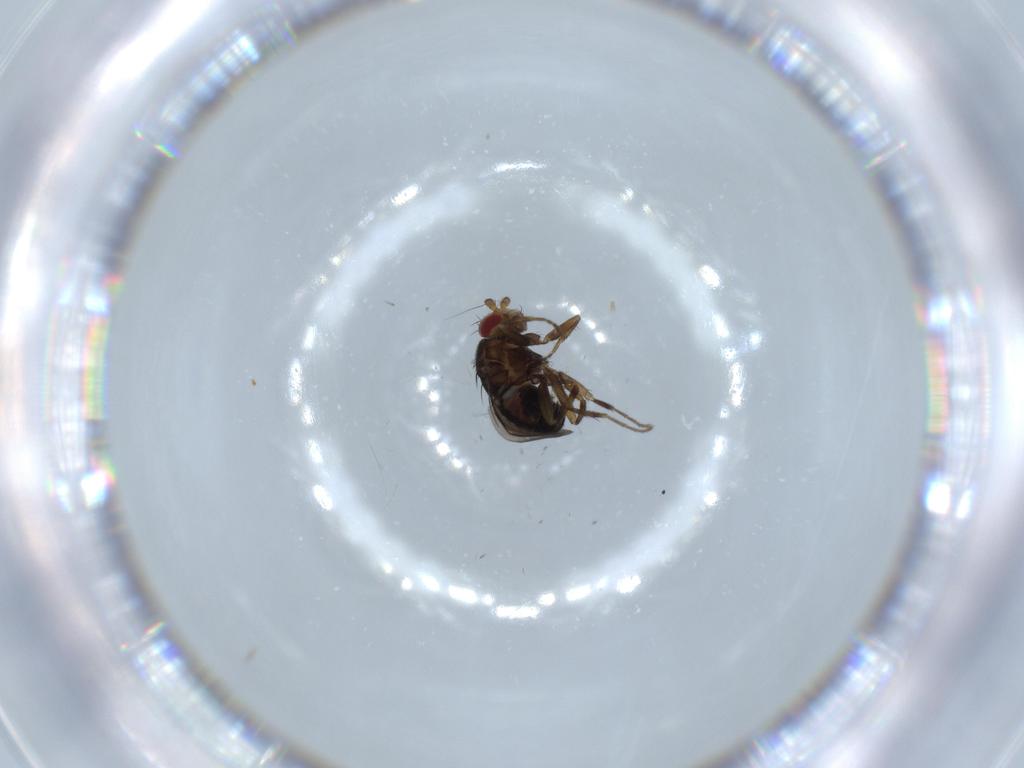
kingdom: Animalia
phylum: Arthropoda
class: Insecta
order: Diptera
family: Sphaeroceridae
